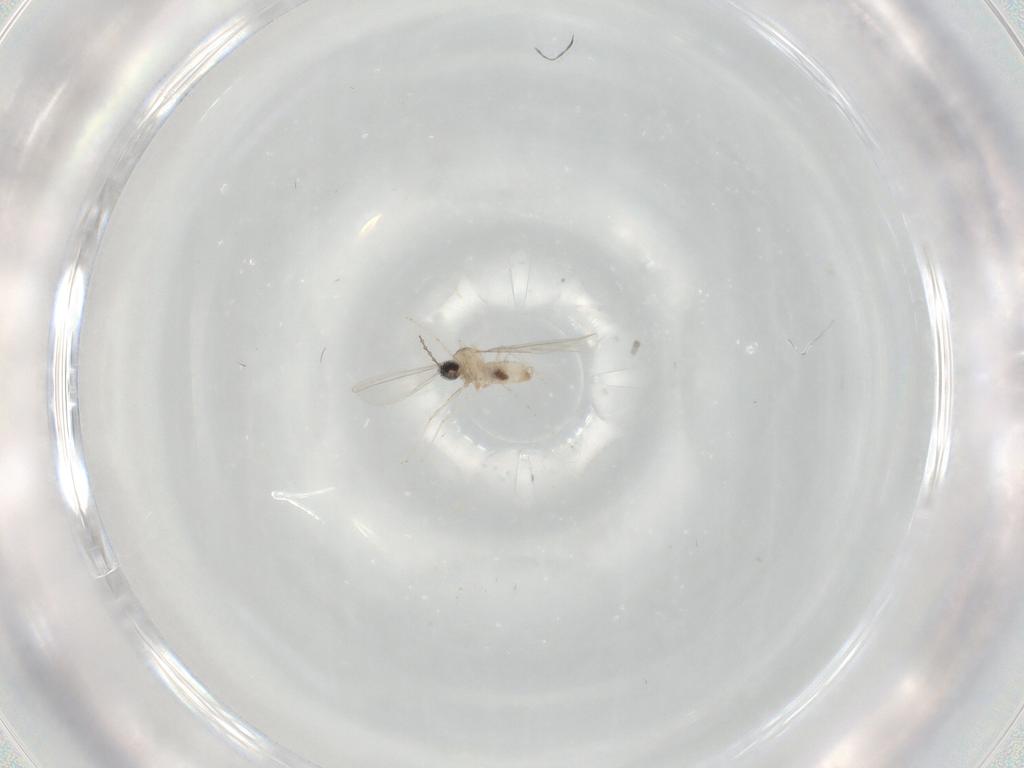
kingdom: Animalia
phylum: Arthropoda
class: Insecta
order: Diptera
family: Cecidomyiidae
